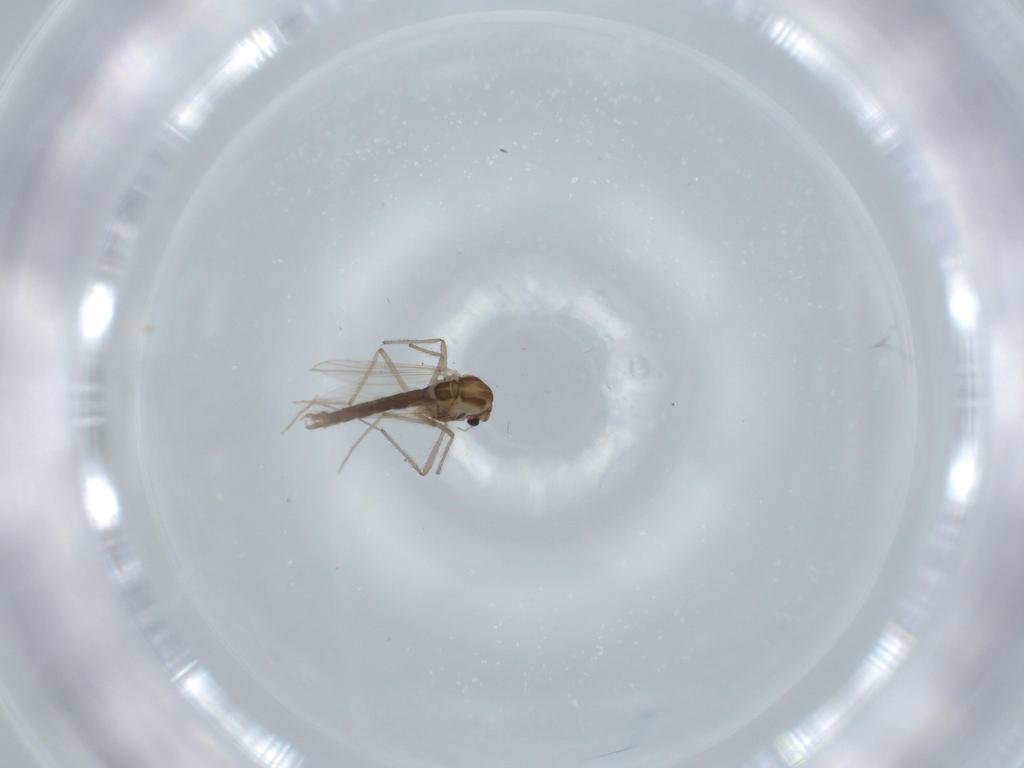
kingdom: Animalia
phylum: Arthropoda
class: Insecta
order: Diptera
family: Chironomidae
